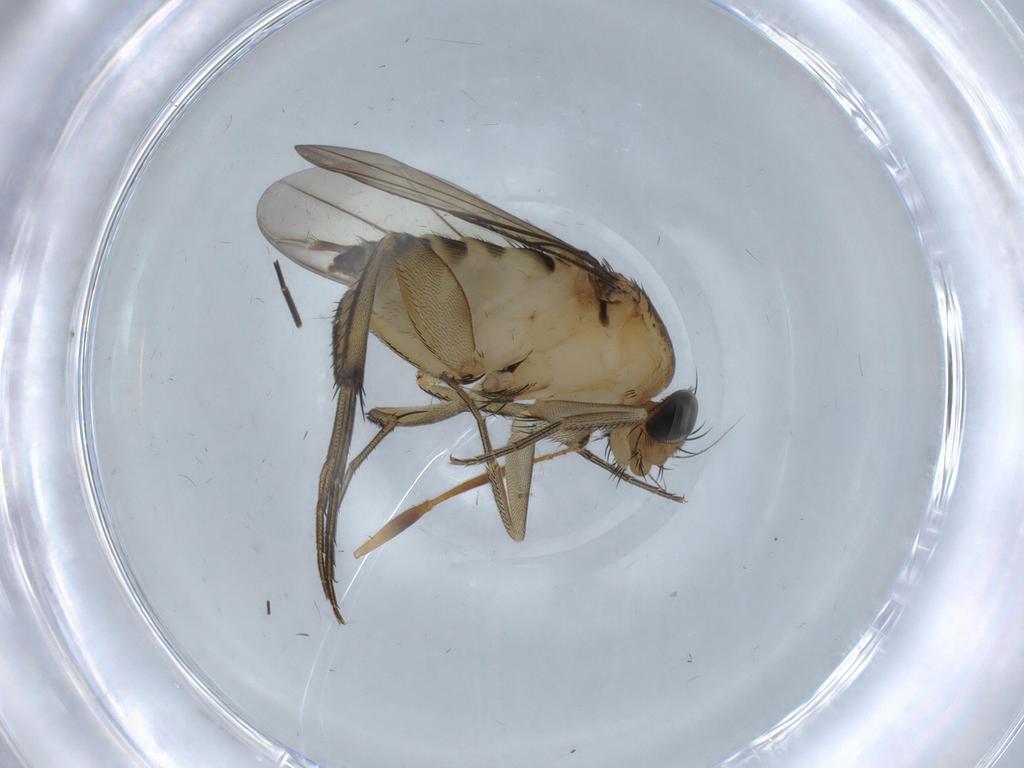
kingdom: Animalia
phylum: Arthropoda
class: Insecta
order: Diptera
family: Phoridae
